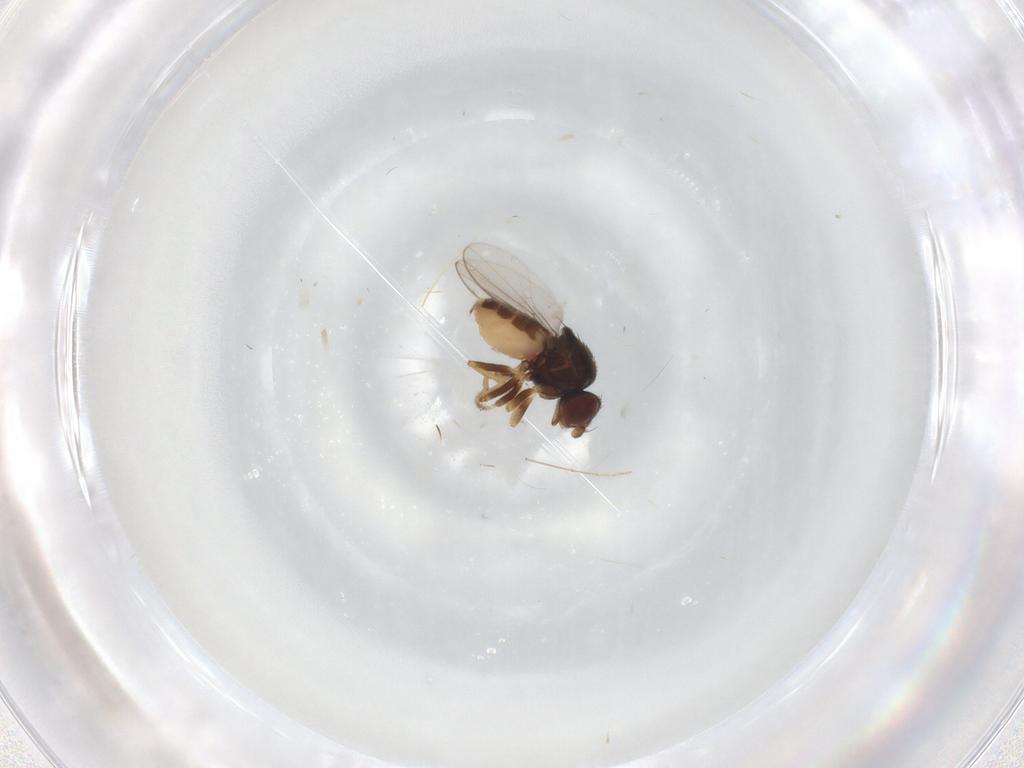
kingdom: Animalia
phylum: Arthropoda
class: Insecta
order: Diptera
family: Chloropidae
